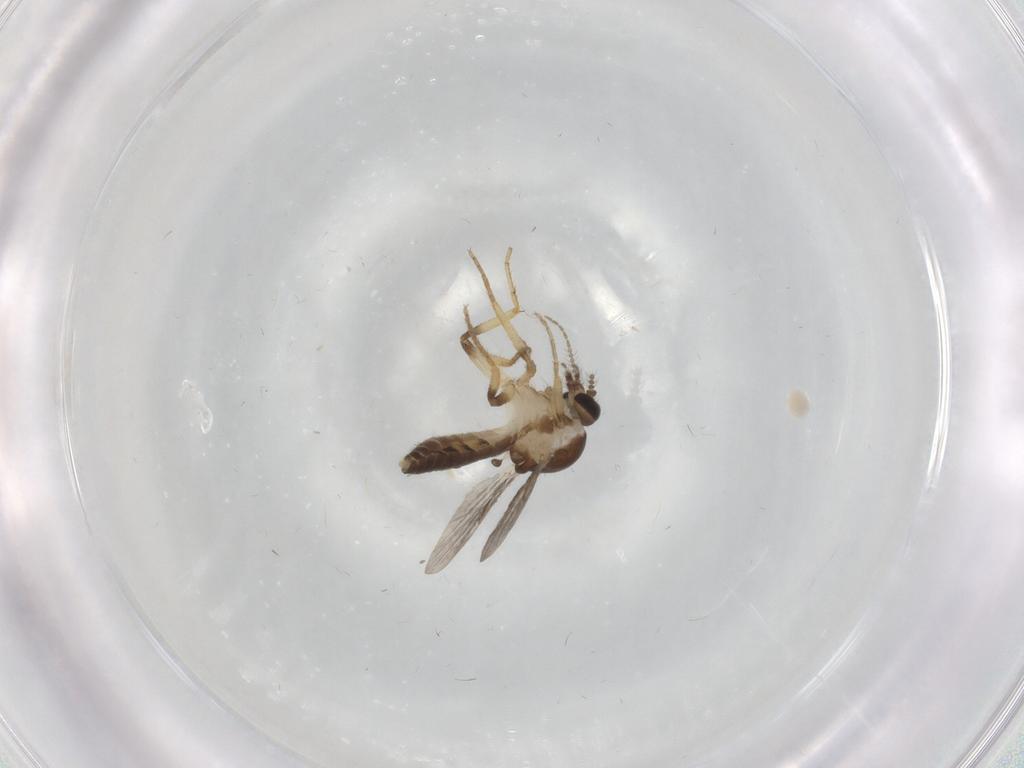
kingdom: Animalia
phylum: Arthropoda
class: Insecta
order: Diptera
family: Ceratopogonidae
